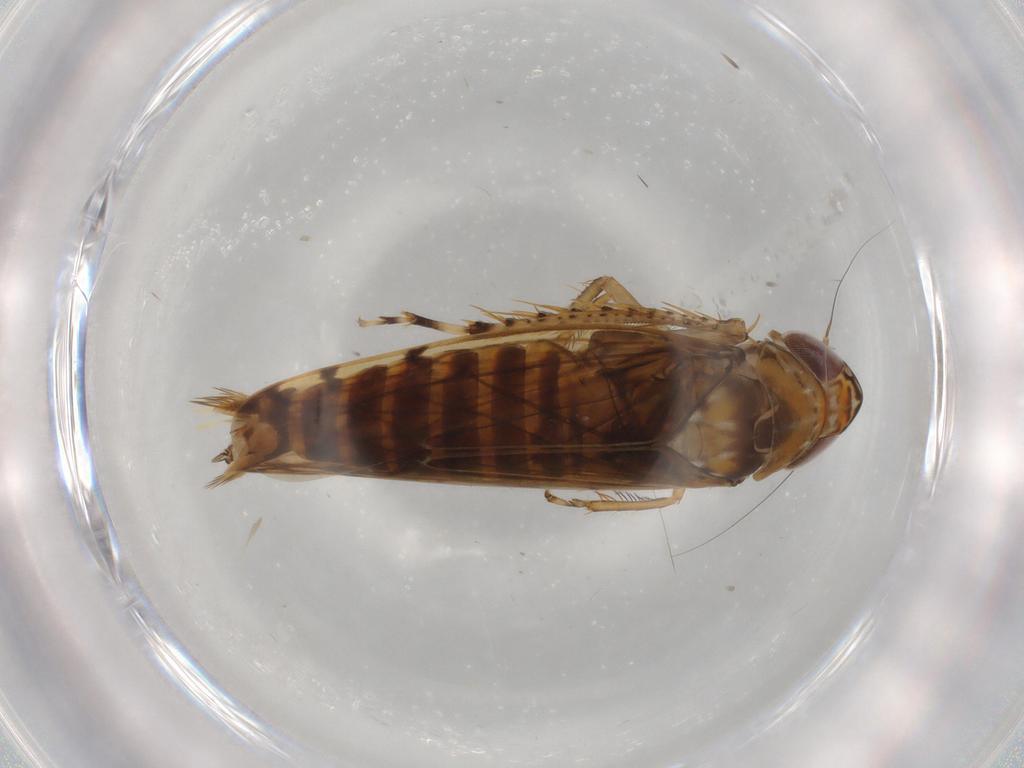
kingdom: Animalia
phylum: Arthropoda
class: Insecta
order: Hemiptera
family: Cicadellidae
